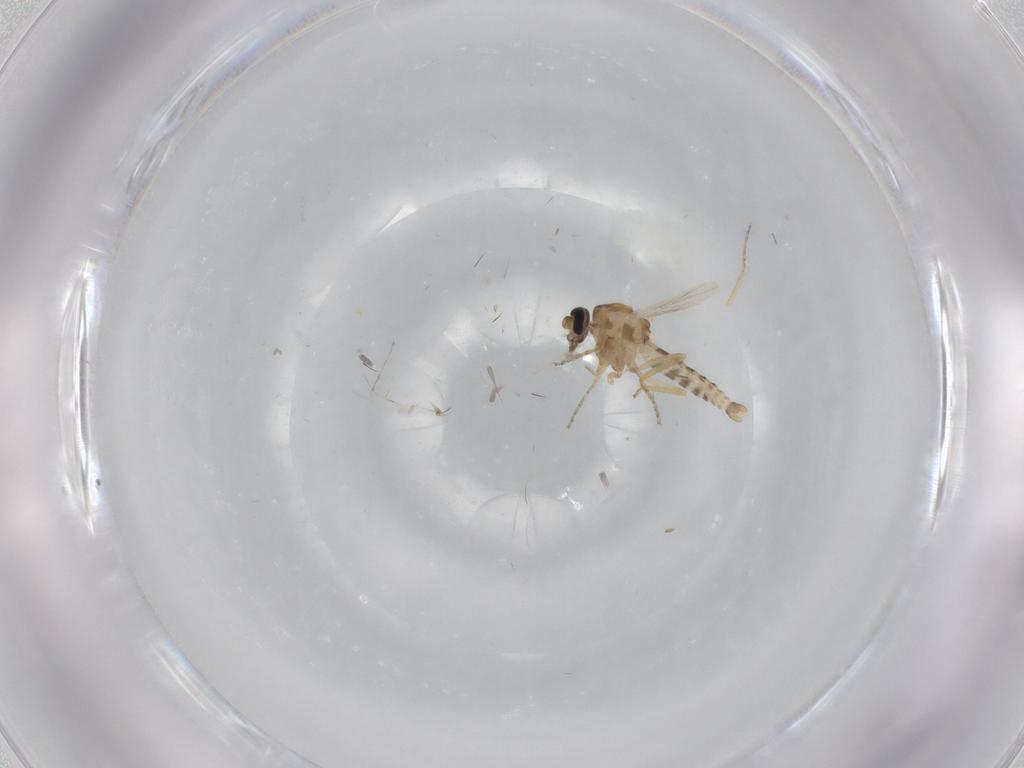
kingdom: Animalia
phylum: Arthropoda
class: Insecta
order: Diptera
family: Ceratopogonidae
